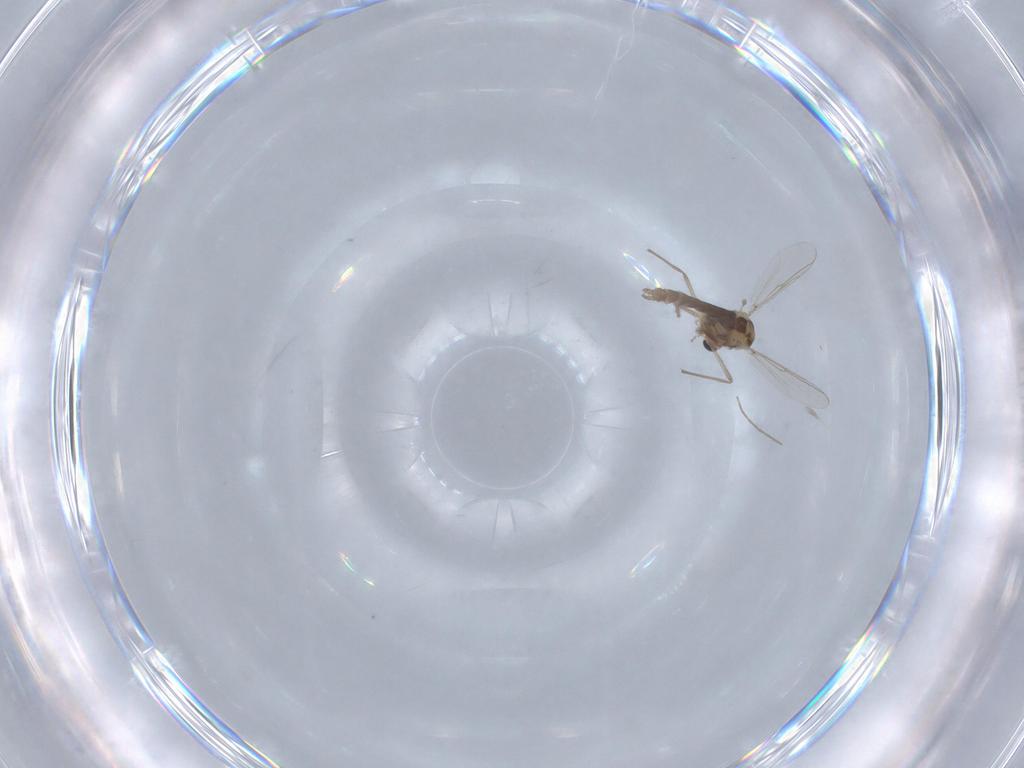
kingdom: Animalia
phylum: Arthropoda
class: Insecta
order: Diptera
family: Chironomidae
